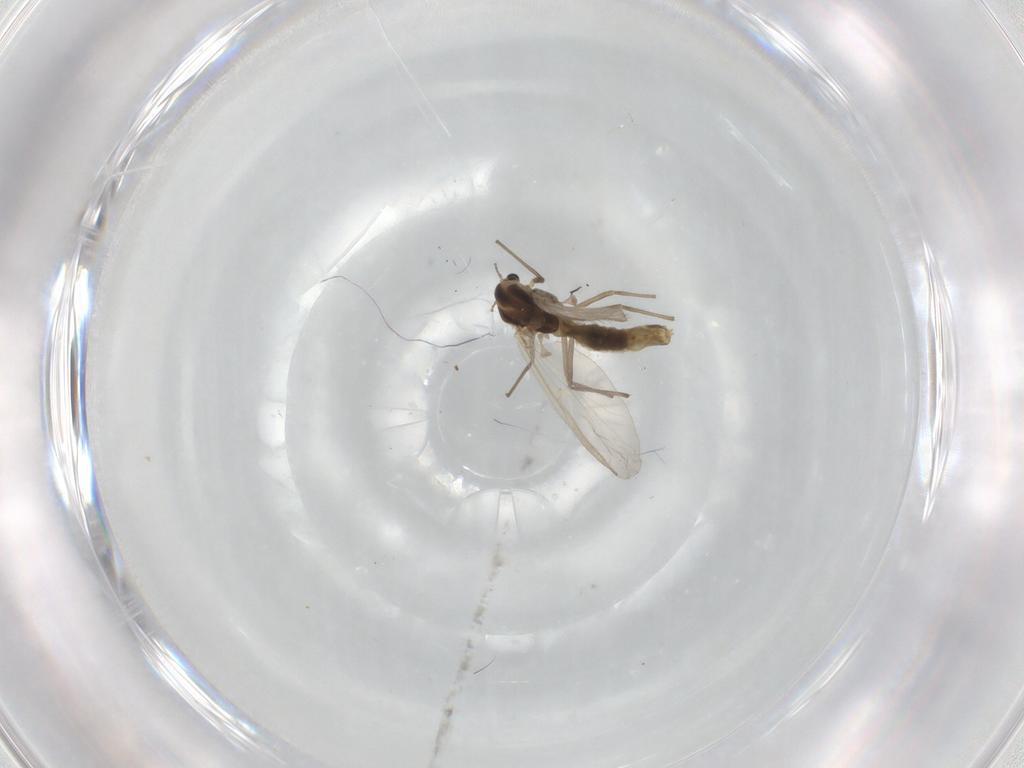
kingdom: Animalia
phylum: Arthropoda
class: Insecta
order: Diptera
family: Chironomidae
